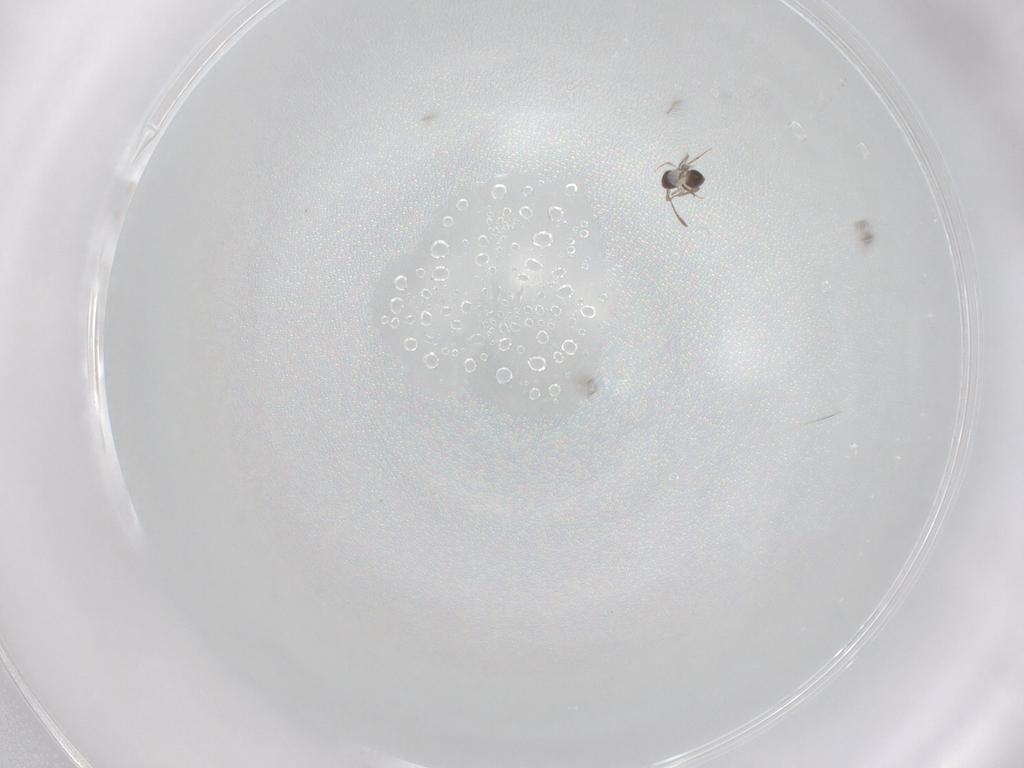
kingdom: Animalia
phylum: Arthropoda
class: Insecta
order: Hymenoptera
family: Mymaridae
